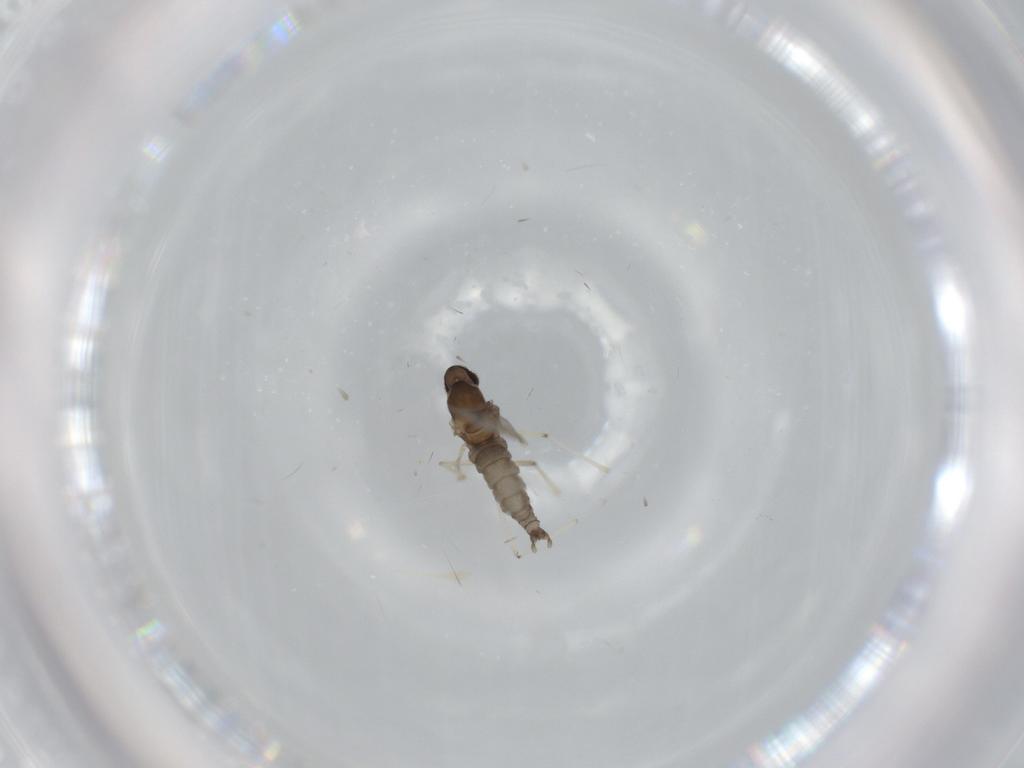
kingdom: Animalia
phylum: Arthropoda
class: Insecta
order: Diptera
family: Cecidomyiidae
